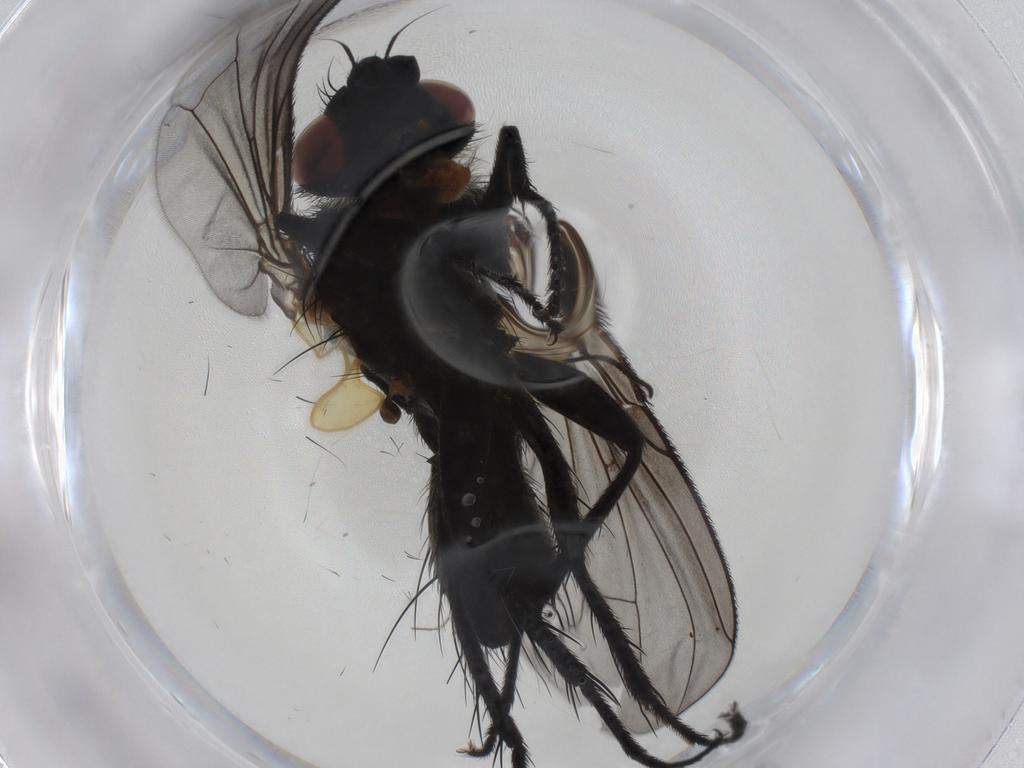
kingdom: Animalia
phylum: Arthropoda
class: Insecta
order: Diptera
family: Tachinidae
